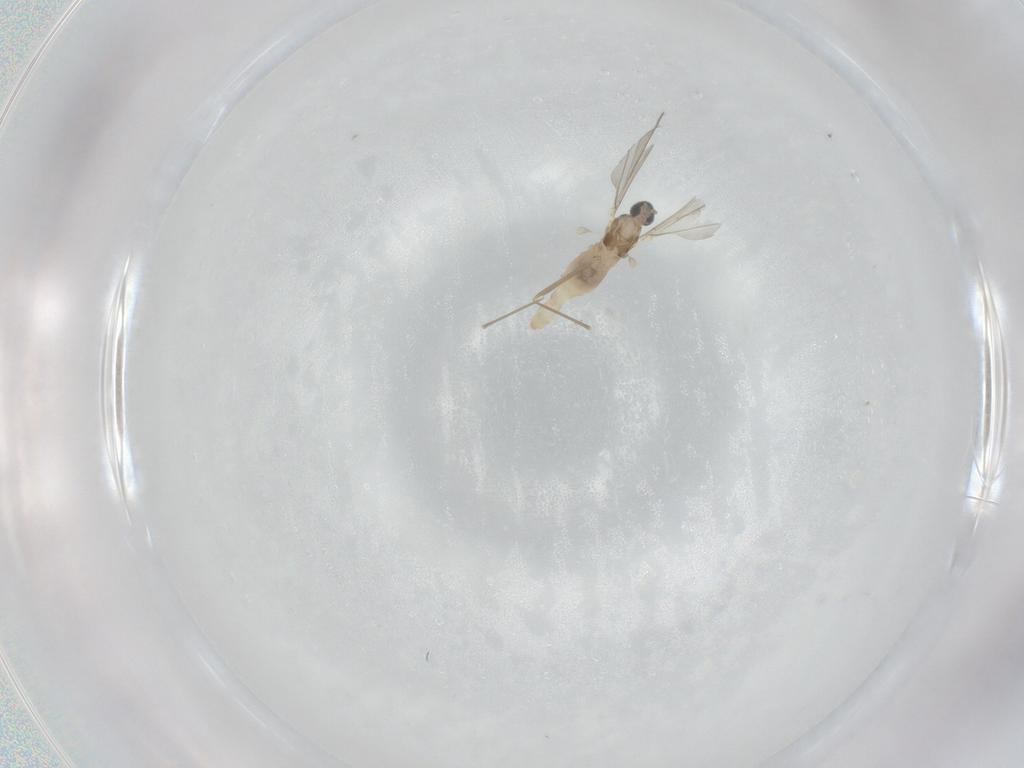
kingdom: Animalia
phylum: Arthropoda
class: Insecta
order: Diptera
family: Cecidomyiidae
